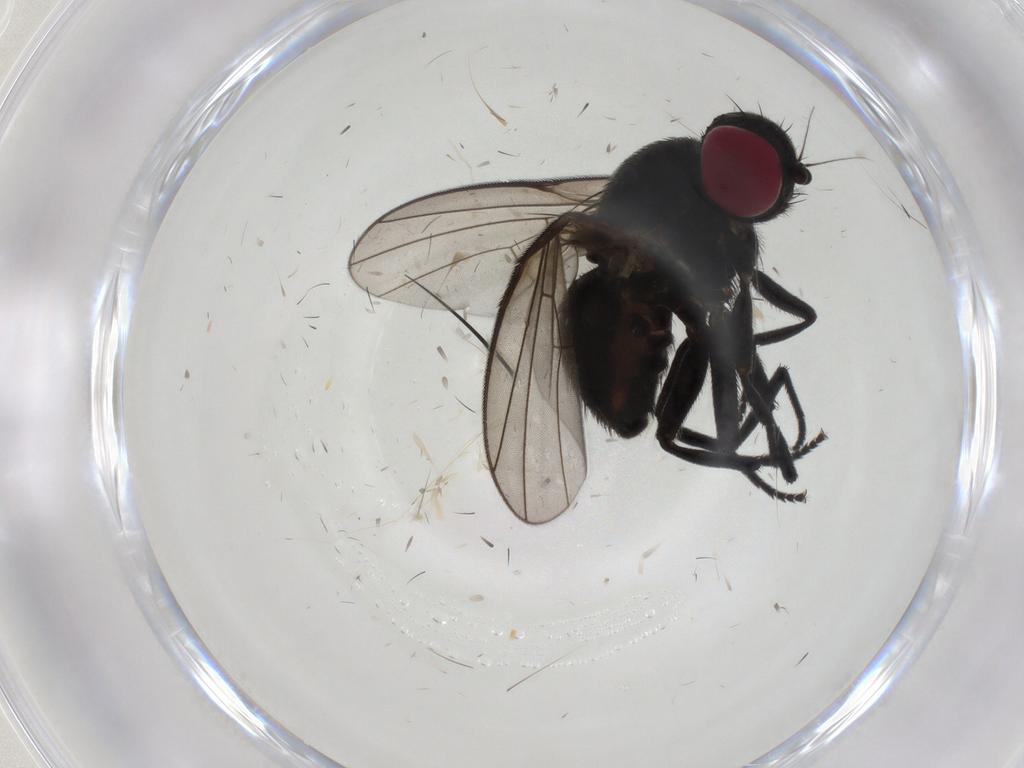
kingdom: Animalia
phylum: Arthropoda
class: Insecta
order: Diptera
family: Agromyzidae
